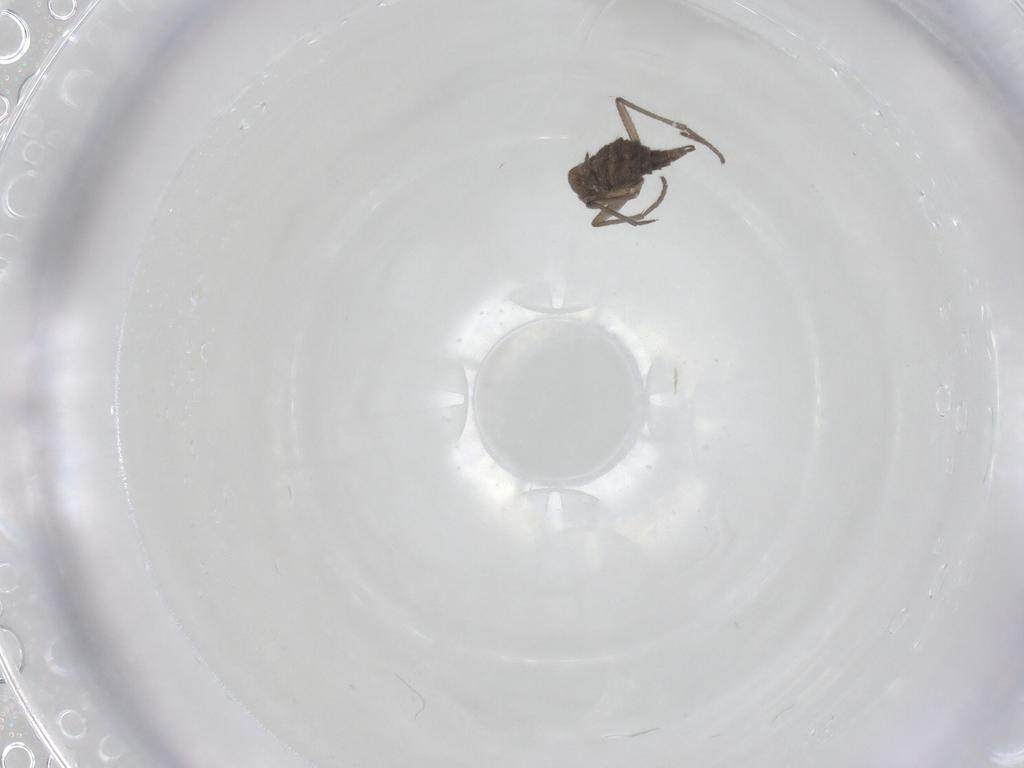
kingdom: Animalia
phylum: Arthropoda
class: Insecta
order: Diptera
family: Sciaridae
